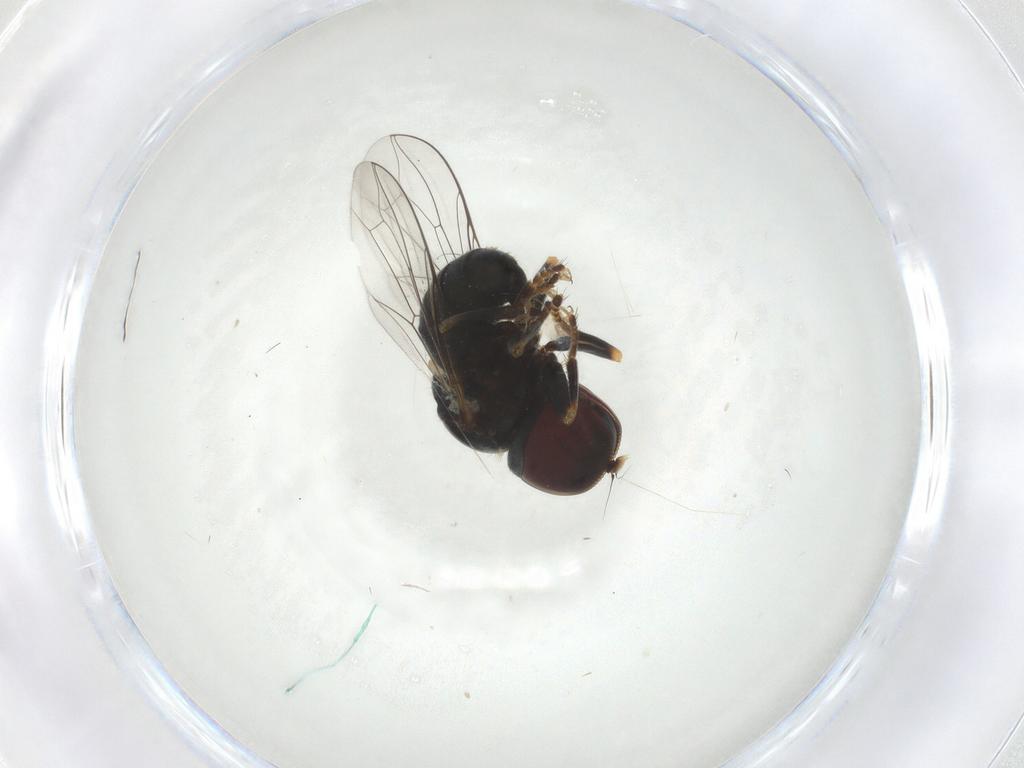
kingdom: Animalia
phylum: Arthropoda
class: Insecta
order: Diptera
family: Pipunculidae
